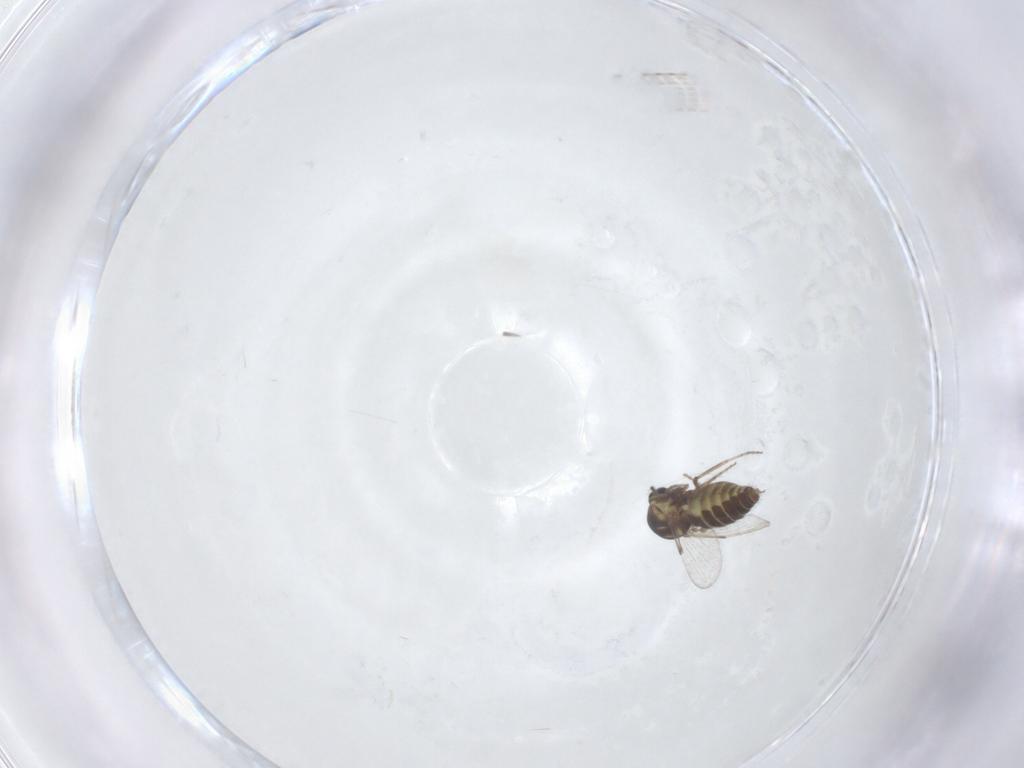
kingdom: Animalia
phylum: Arthropoda
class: Insecta
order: Diptera
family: Ceratopogonidae
